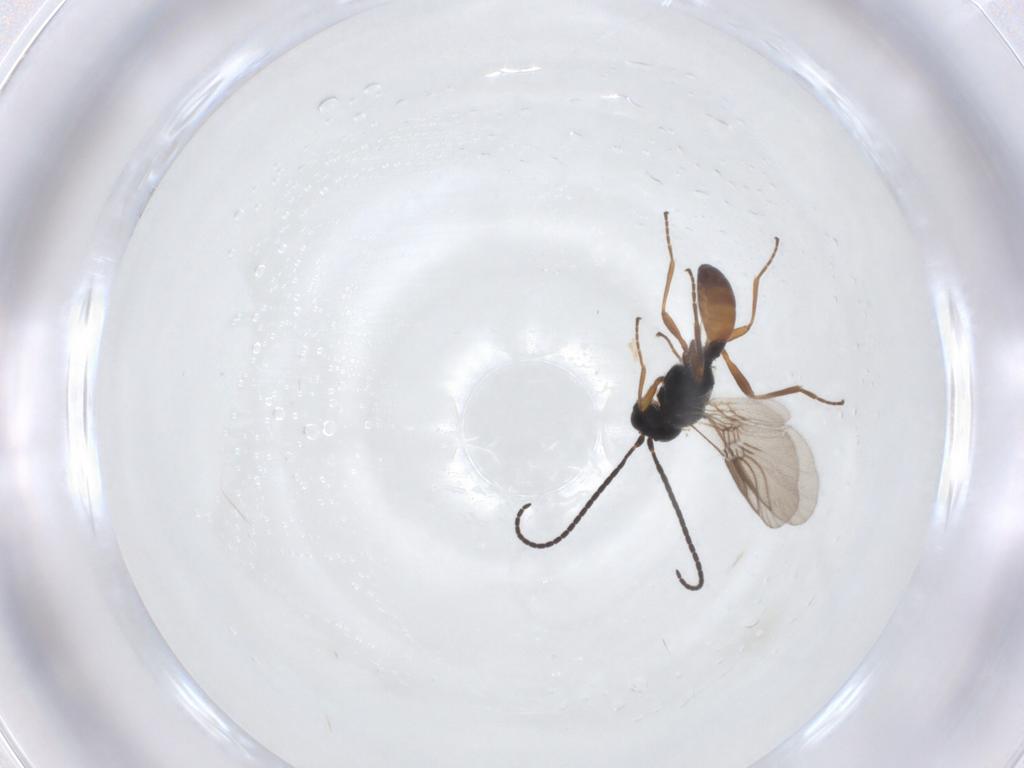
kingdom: Animalia
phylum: Arthropoda
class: Insecta
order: Hymenoptera
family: Braconidae
